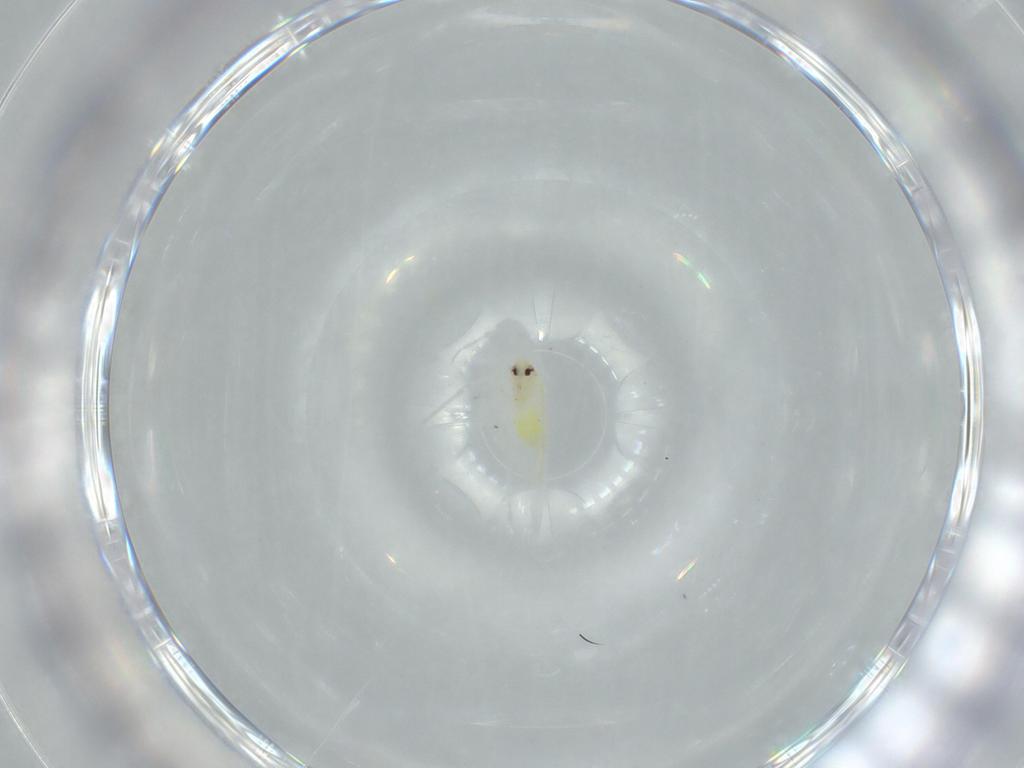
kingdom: Animalia
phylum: Arthropoda
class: Insecta
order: Hemiptera
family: Aleyrodidae
